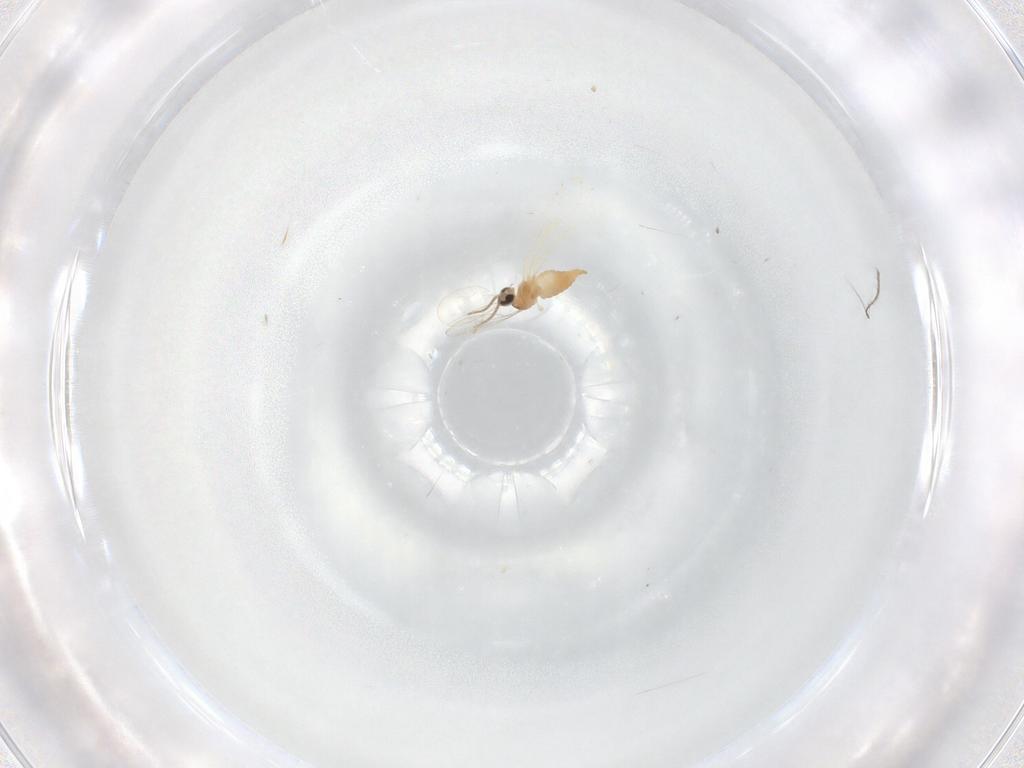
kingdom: Animalia
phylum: Arthropoda
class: Insecta
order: Diptera
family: Cecidomyiidae
